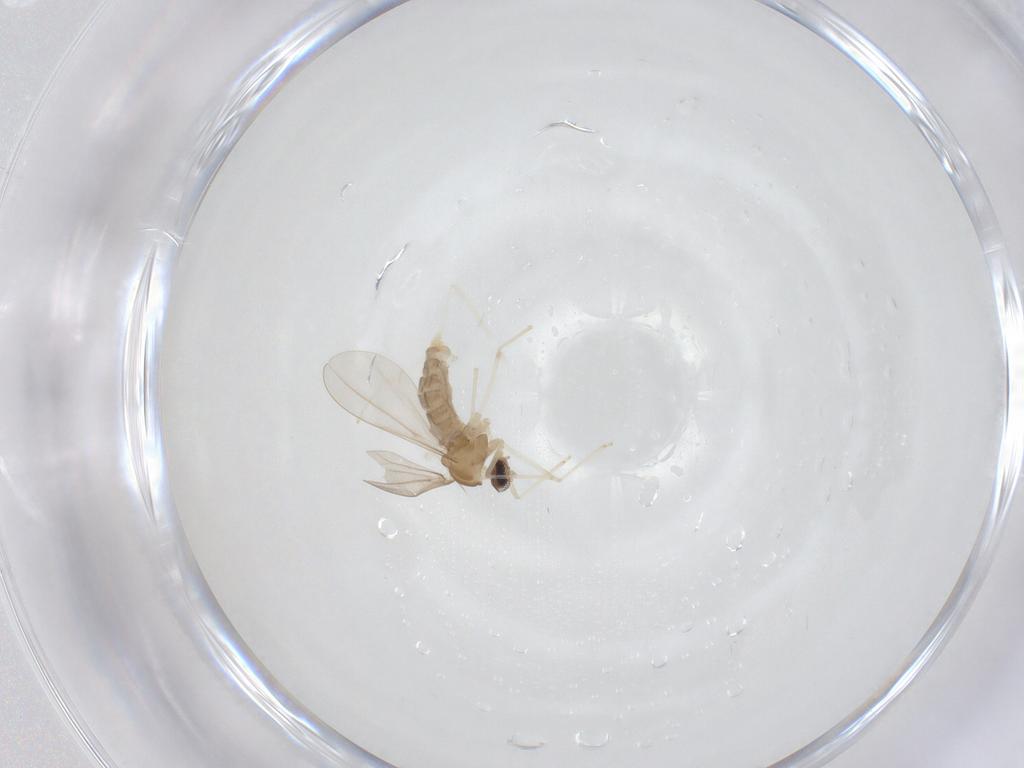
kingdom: Animalia
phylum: Arthropoda
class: Insecta
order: Diptera
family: Cecidomyiidae
